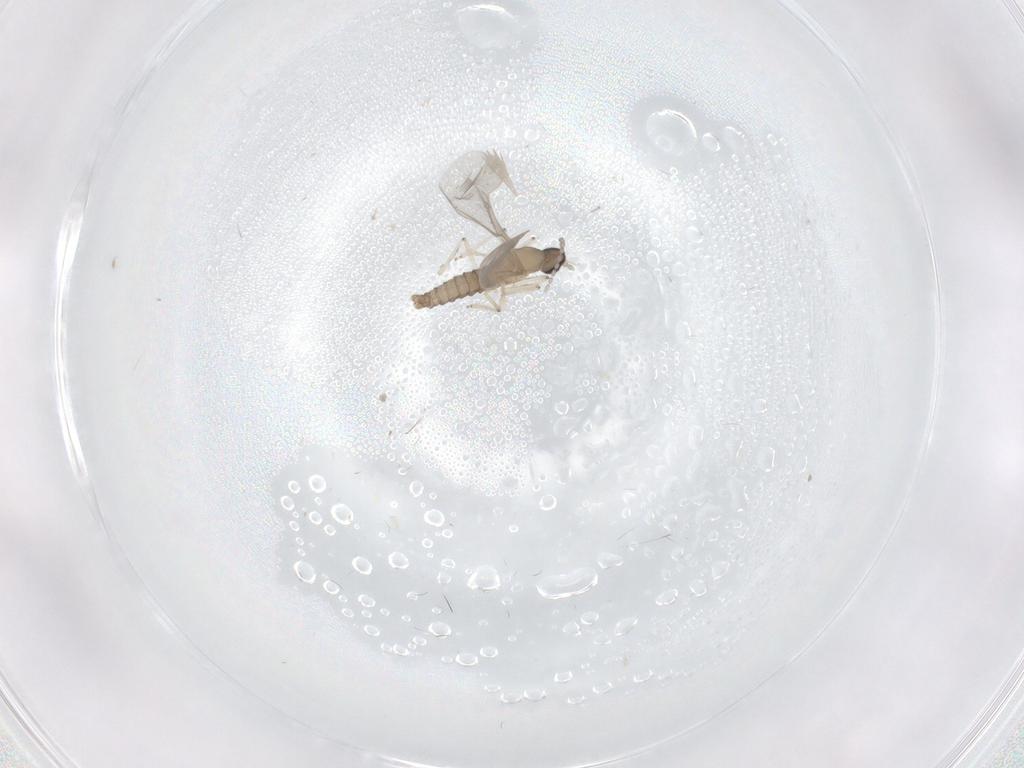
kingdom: Animalia
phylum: Arthropoda
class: Insecta
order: Diptera
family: Cecidomyiidae
